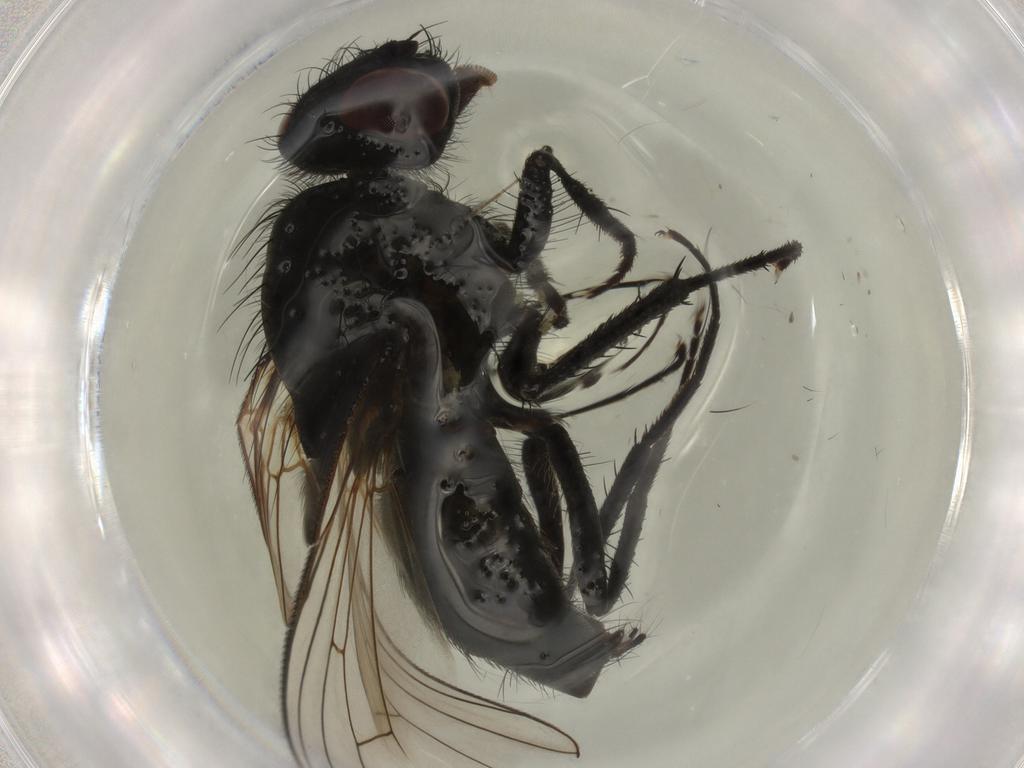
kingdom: Animalia
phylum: Arthropoda
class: Insecta
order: Diptera
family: Muscidae
